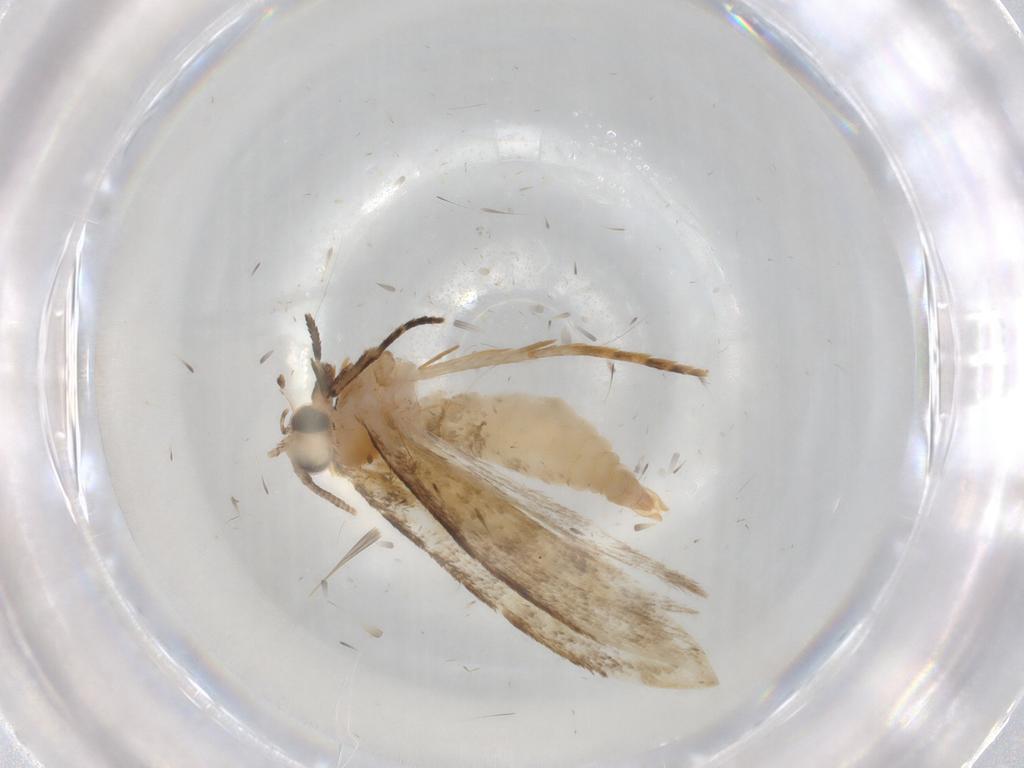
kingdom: Animalia
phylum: Arthropoda
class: Insecta
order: Lepidoptera
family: Tineidae
